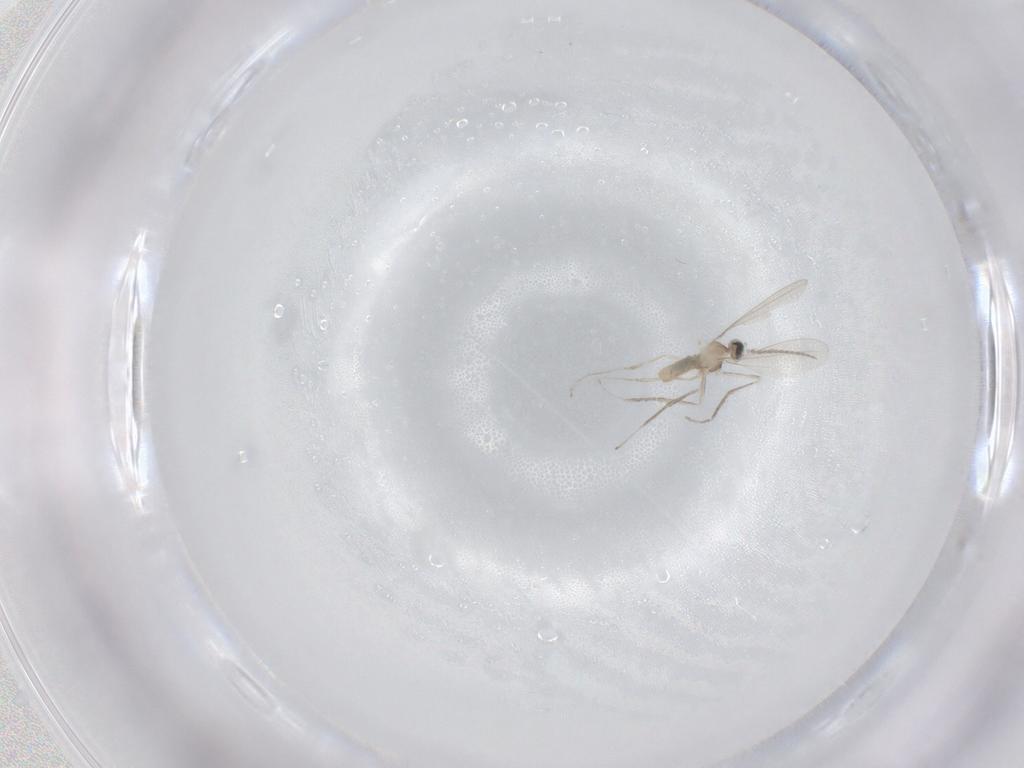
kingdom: Animalia
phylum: Arthropoda
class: Insecta
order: Diptera
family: Cecidomyiidae
